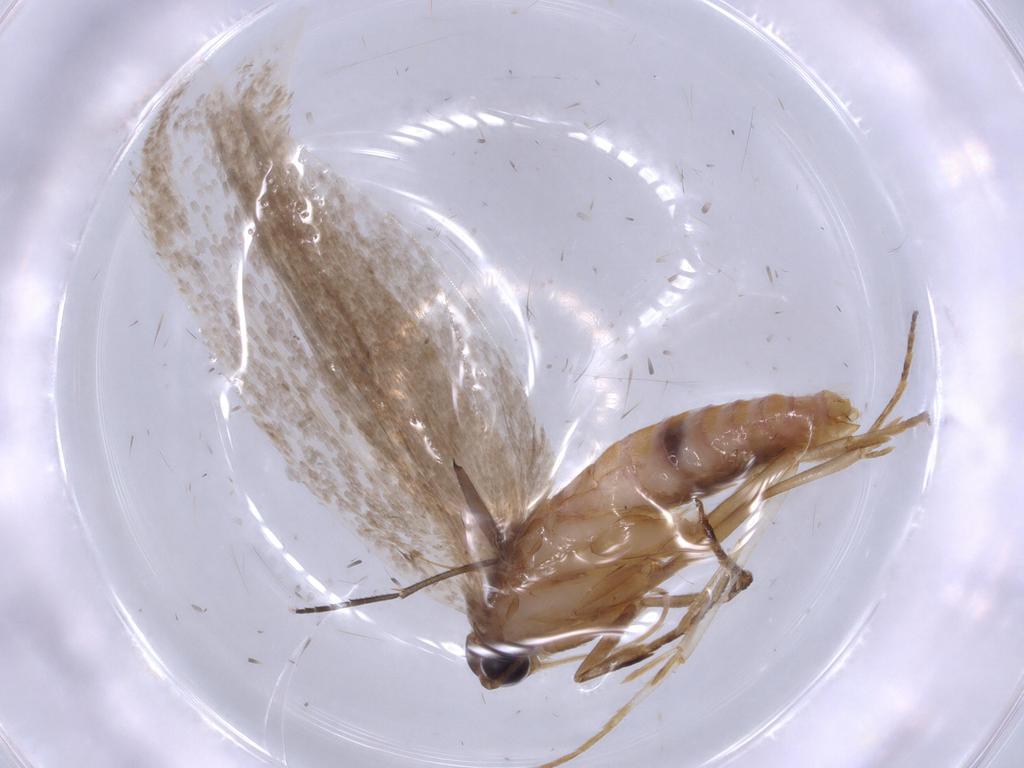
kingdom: Animalia
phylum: Arthropoda
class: Insecta
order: Lepidoptera
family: Lecithoceridae
